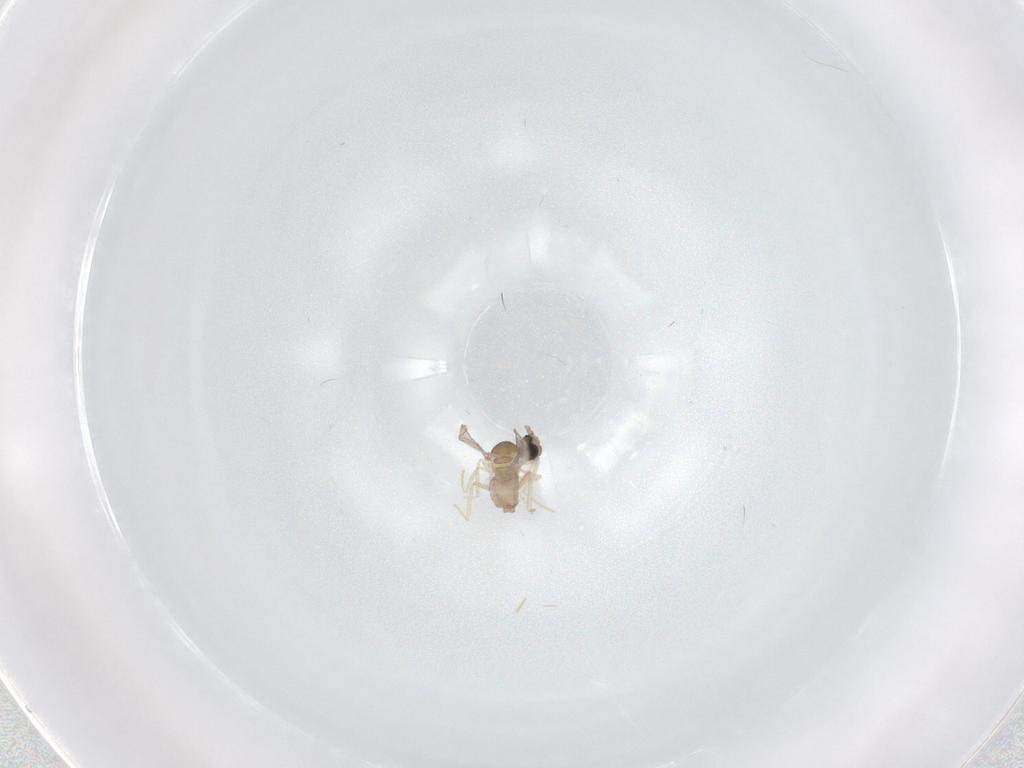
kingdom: Animalia
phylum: Arthropoda
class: Insecta
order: Diptera
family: Cecidomyiidae
